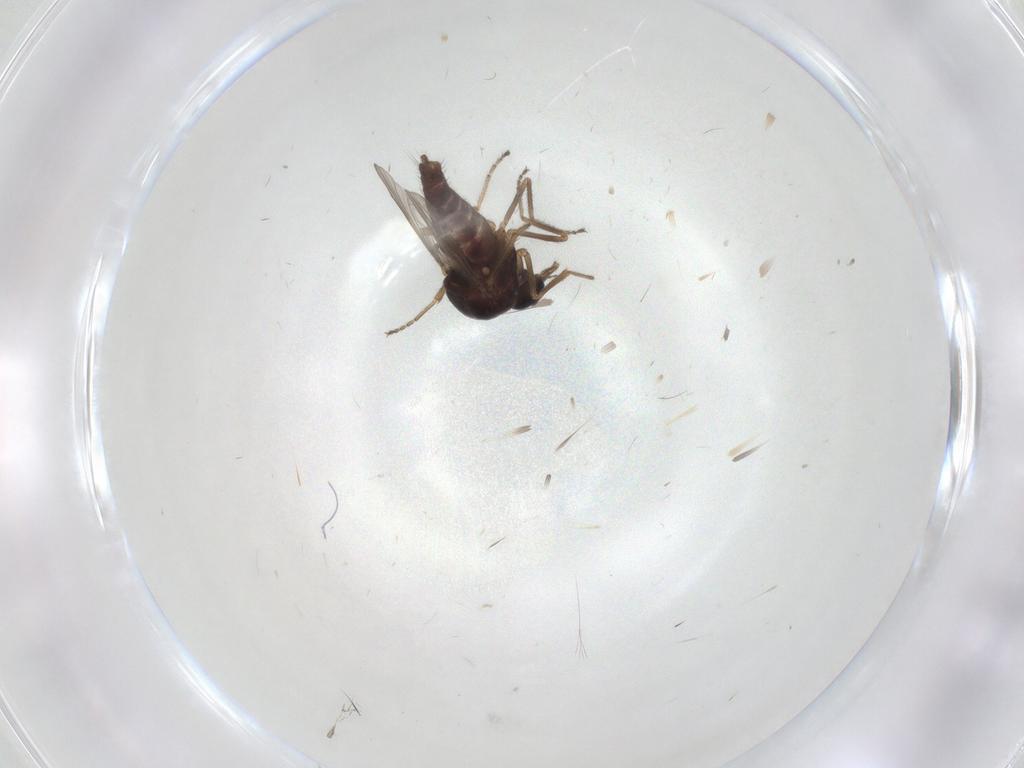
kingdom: Animalia
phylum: Arthropoda
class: Insecta
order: Diptera
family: Ceratopogonidae
